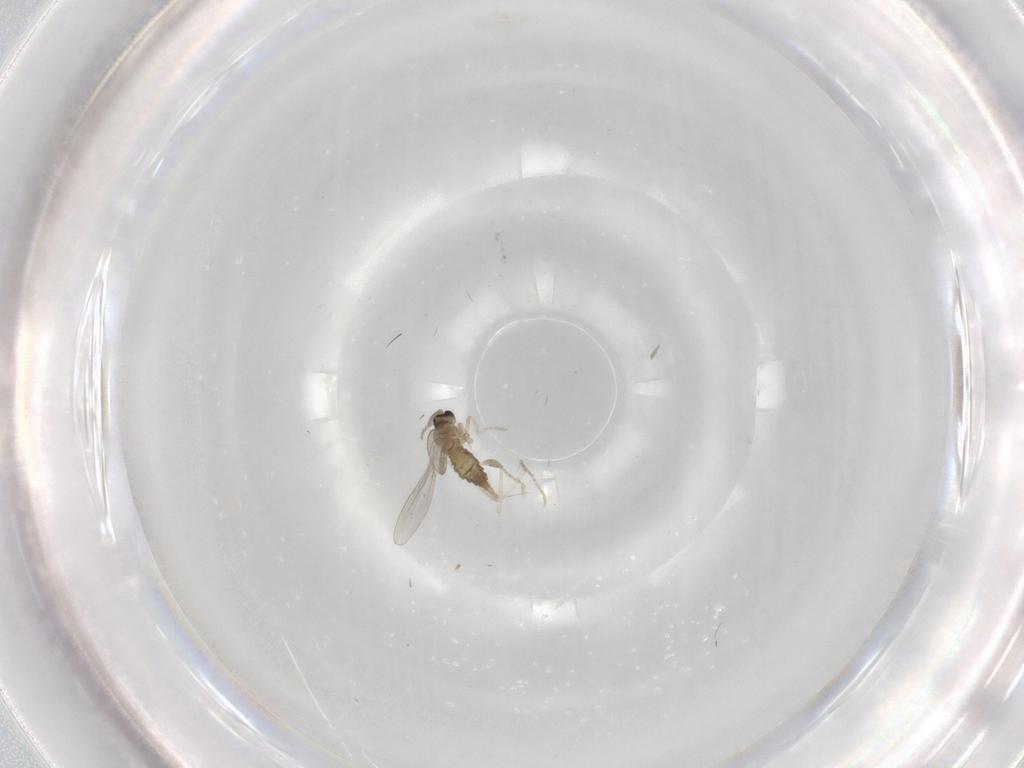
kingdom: Animalia
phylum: Arthropoda
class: Insecta
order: Diptera
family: Cecidomyiidae
